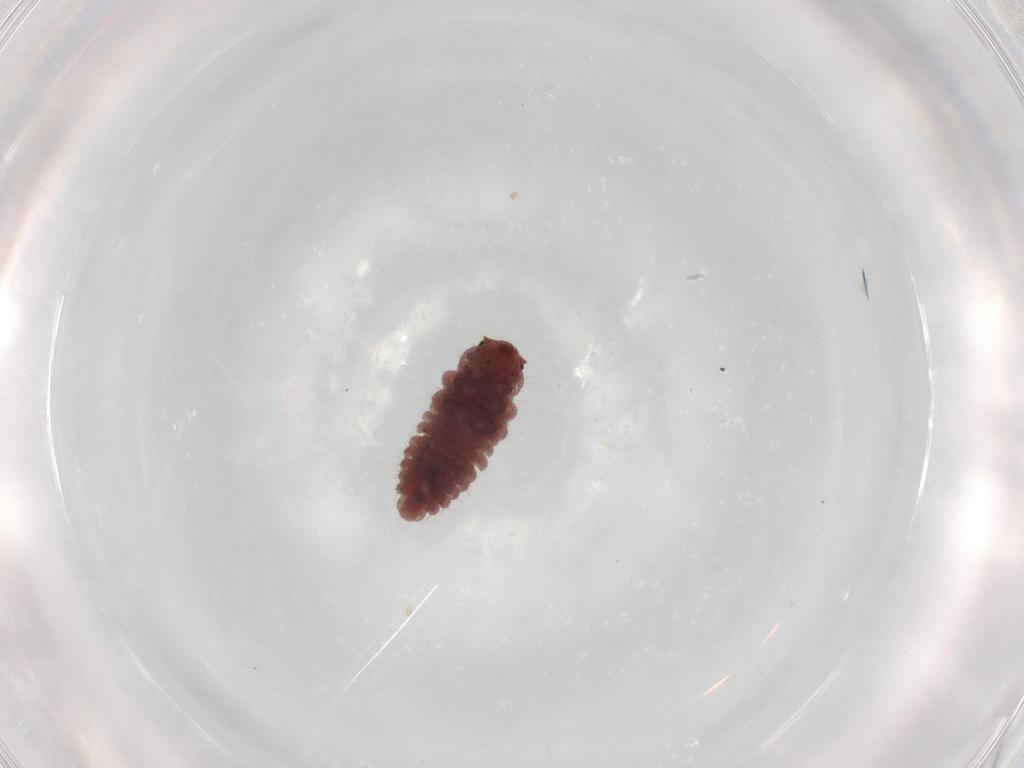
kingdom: Animalia
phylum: Arthropoda
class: Insecta
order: Coleoptera
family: Coccinellidae
